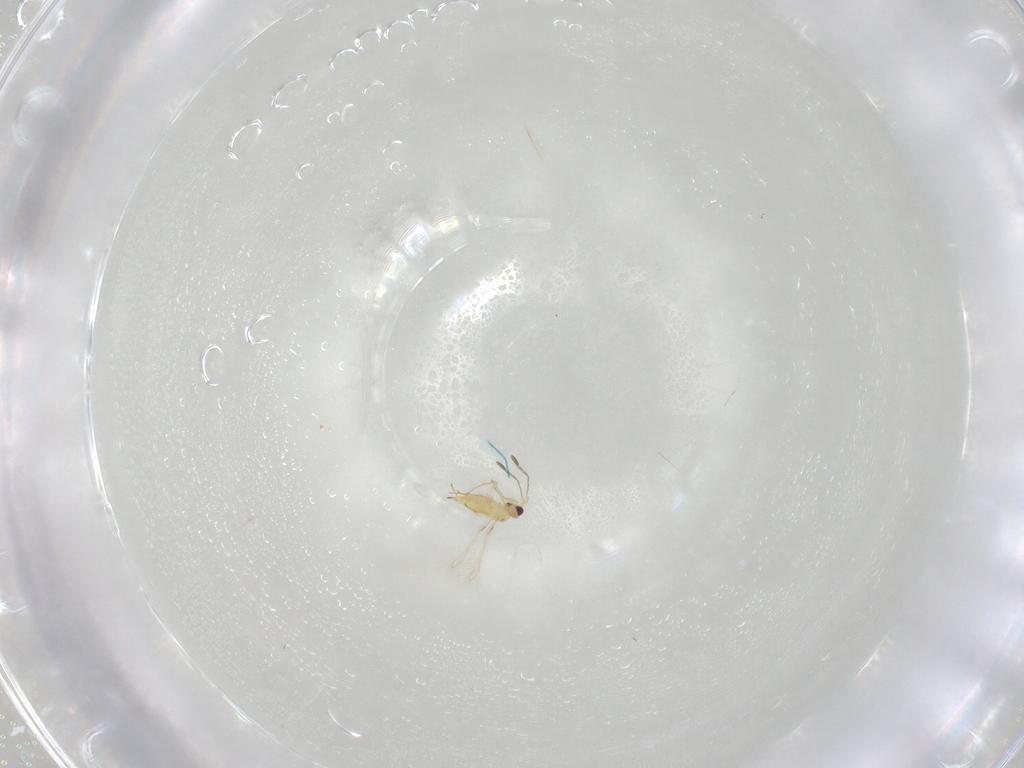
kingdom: Animalia
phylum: Arthropoda
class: Insecta
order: Hymenoptera
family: Mymaridae
